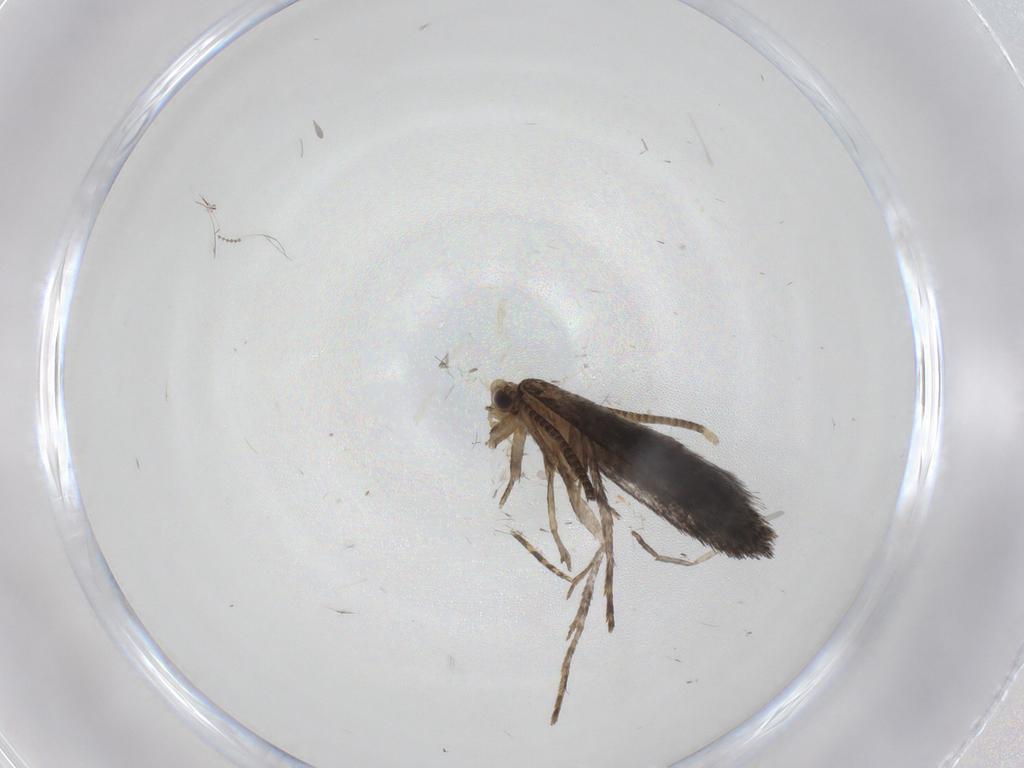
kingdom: Animalia
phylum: Arthropoda
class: Insecta
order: Lepidoptera
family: Tineidae
